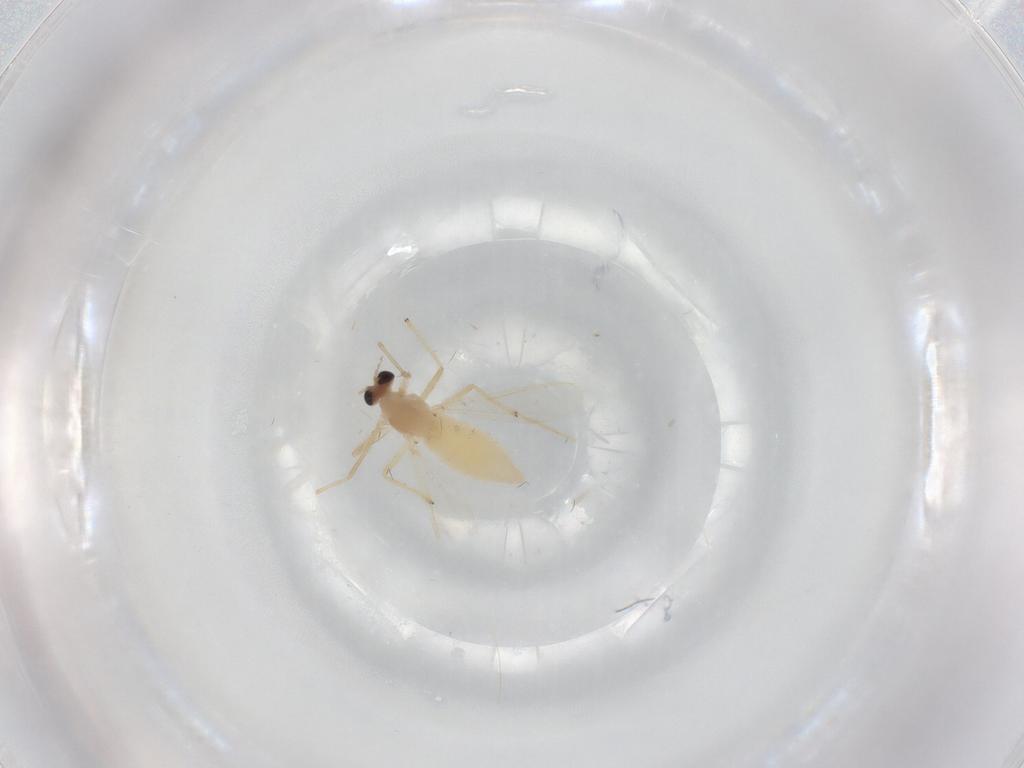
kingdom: Animalia
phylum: Arthropoda
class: Insecta
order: Diptera
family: Chironomidae
